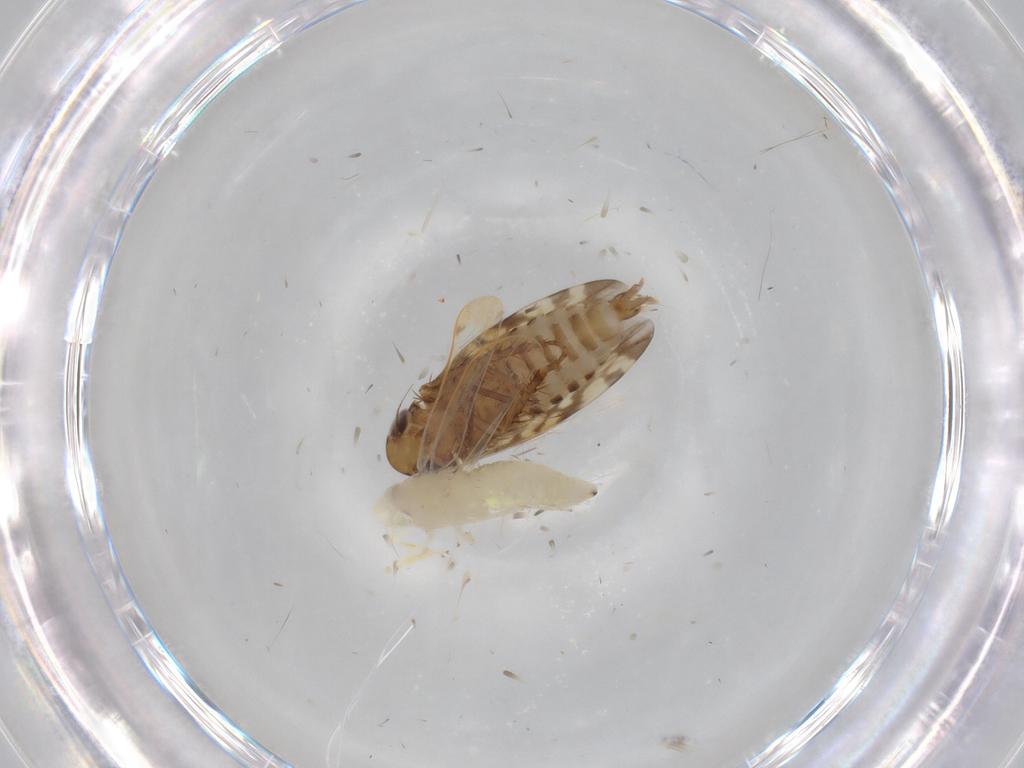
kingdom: Animalia
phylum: Arthropoda
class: Insecta
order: Hemiptera
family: Cicadellidae
